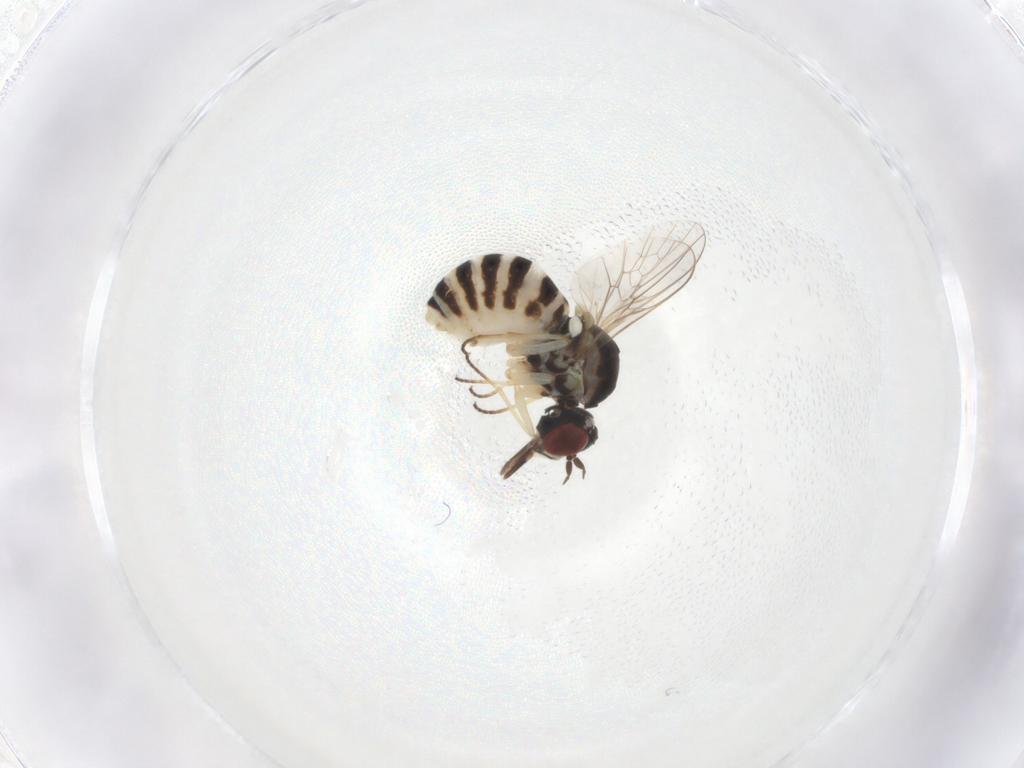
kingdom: Animalia
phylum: Arthropoda
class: Insecta
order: Diptera
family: Bombyliidae
